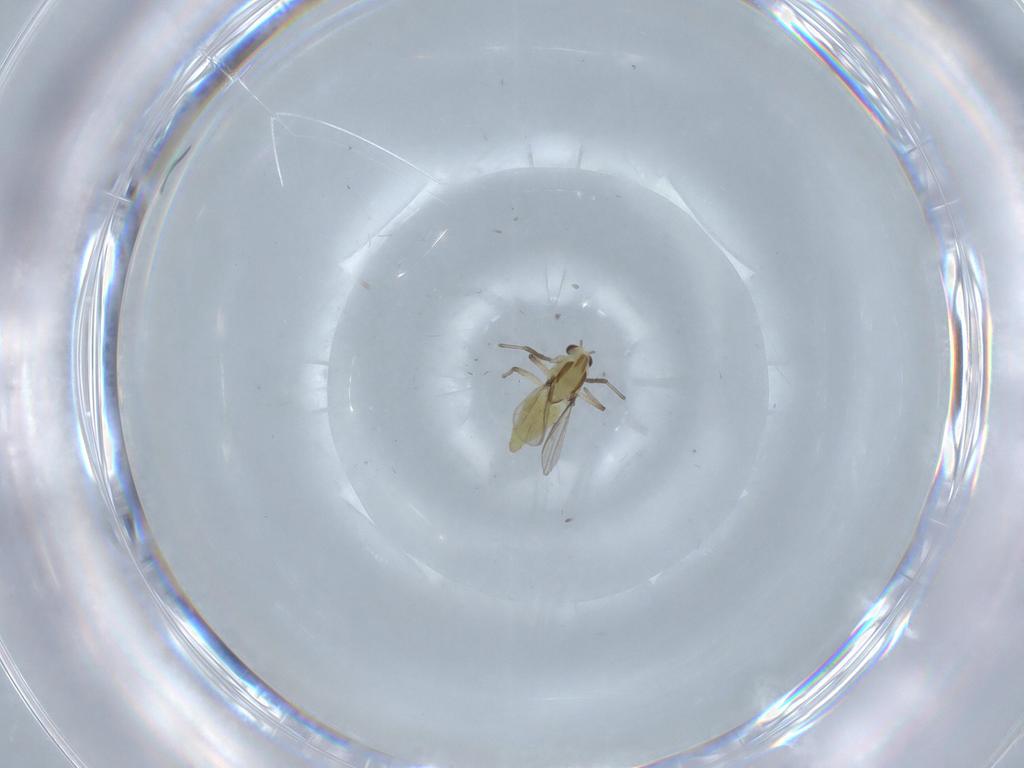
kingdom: Animalia
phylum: Arthropoda
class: Insecta
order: Diptera
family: Chironomidae
